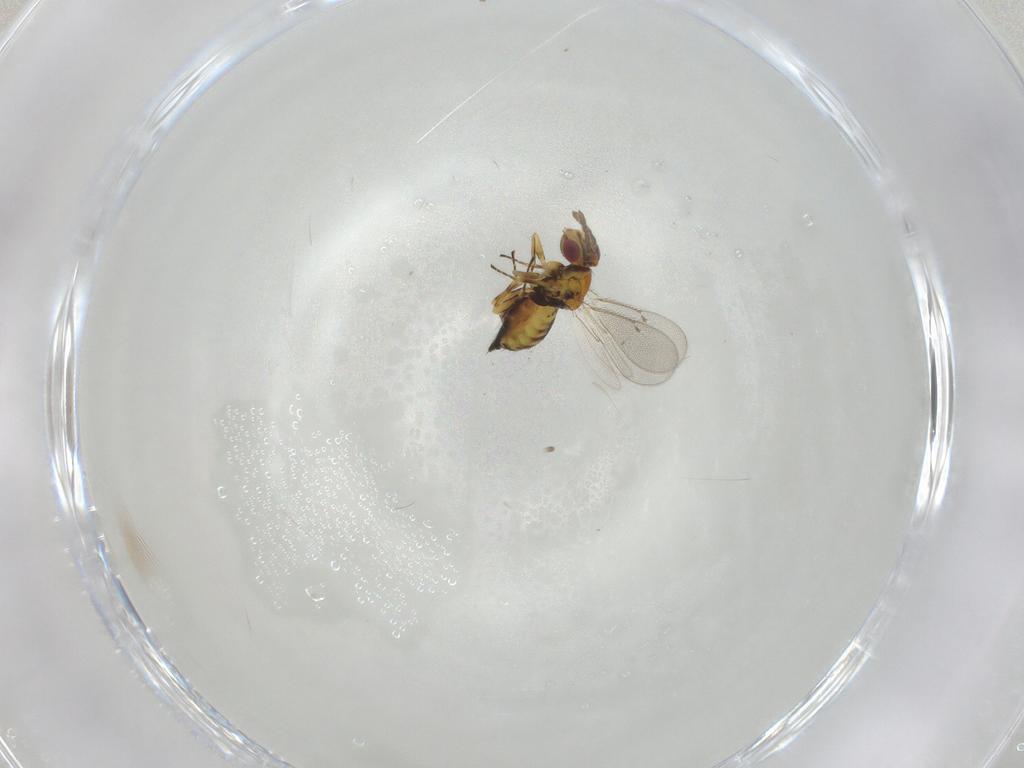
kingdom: Animalia
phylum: Arthropoda
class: Insecta
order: Hymenoptera
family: Eulophidae
